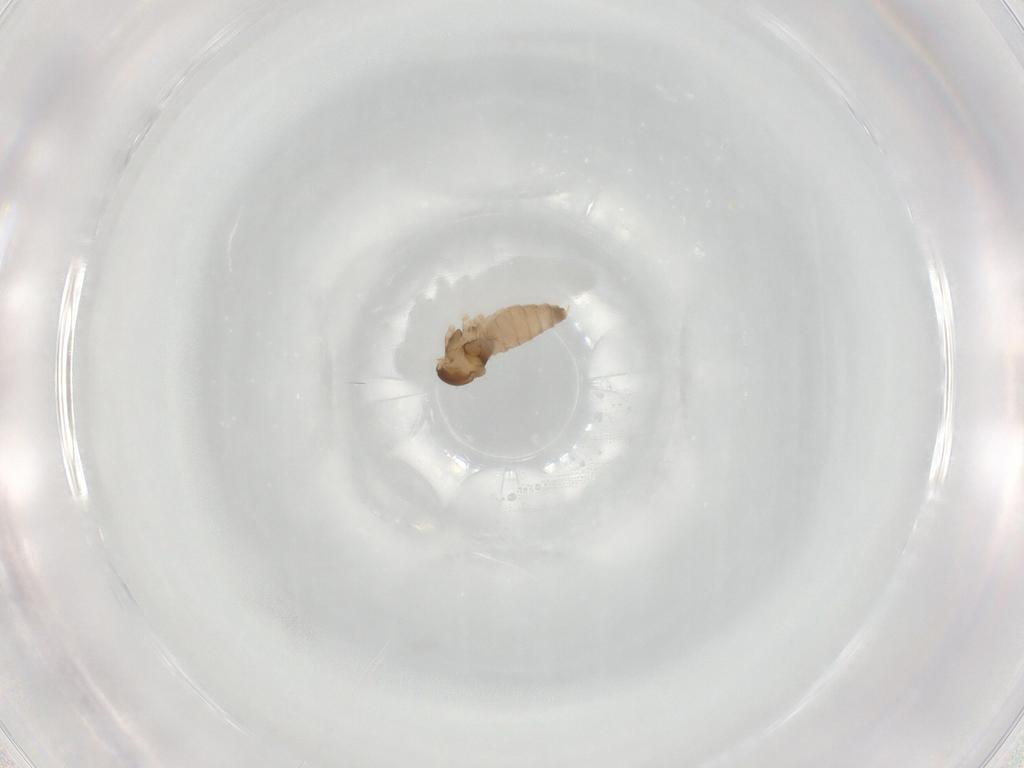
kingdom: Animalia
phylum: Arthropoda
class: Insecta
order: Diptera
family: Cecidomyiidae
